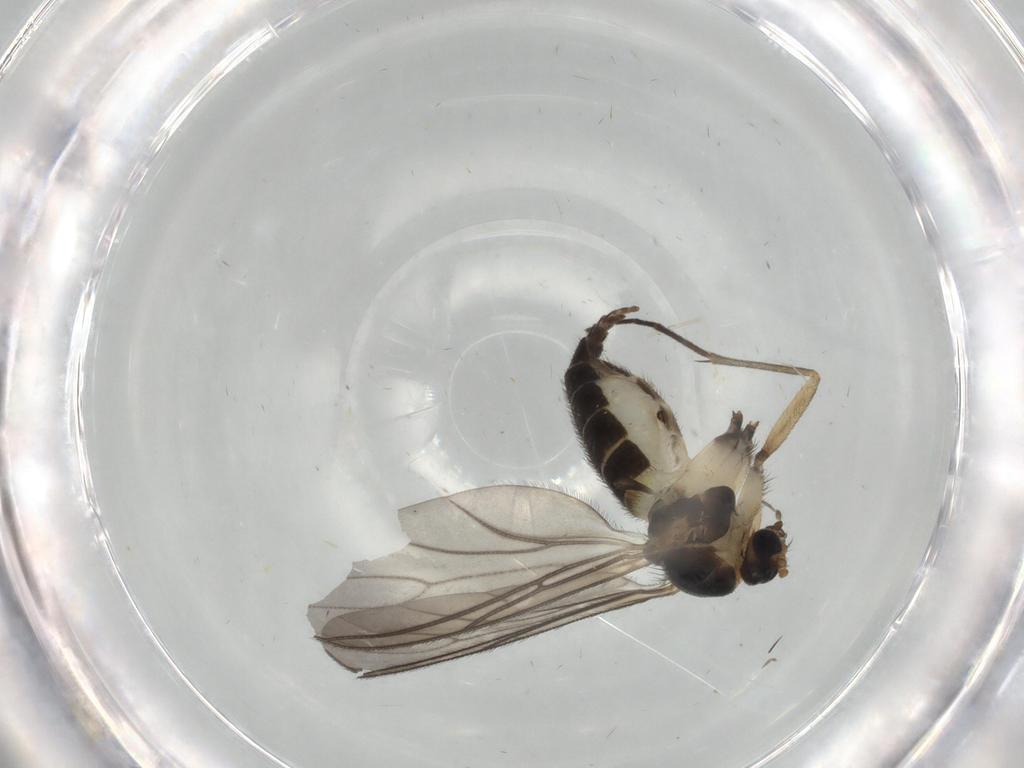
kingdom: Animalia
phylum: Arthropoda
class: Insecta
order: Diptera
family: Sciaridae
